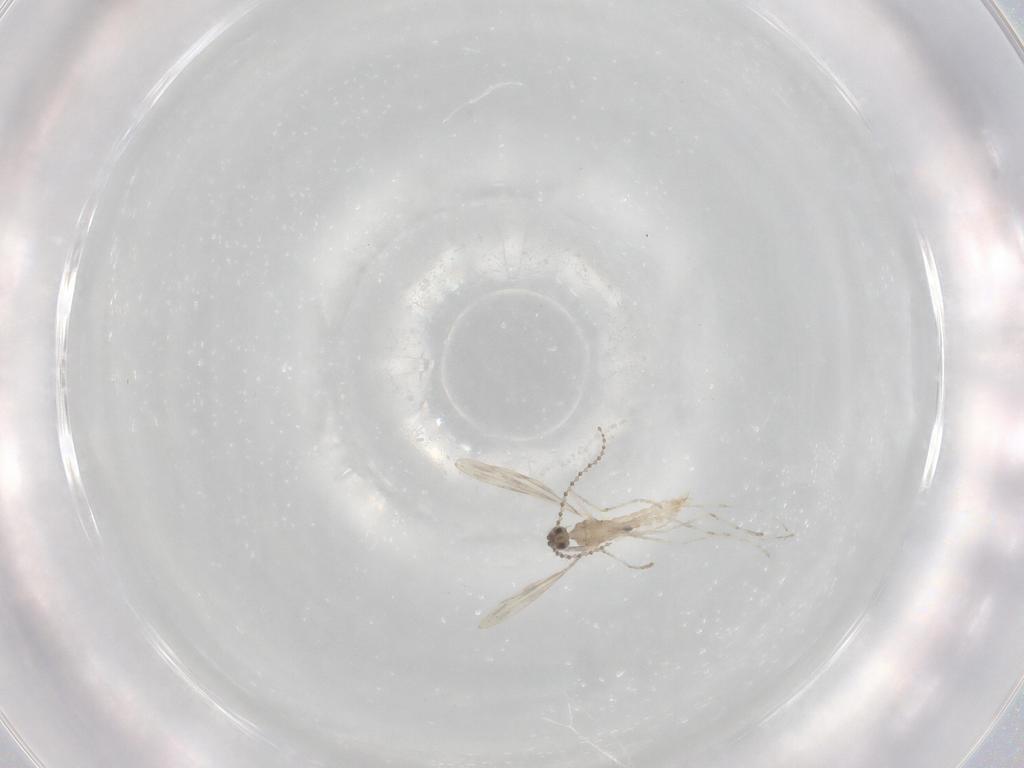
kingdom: Animalia
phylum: Arthropoda
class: Insecta
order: Diptera
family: Cecidomyiidae
